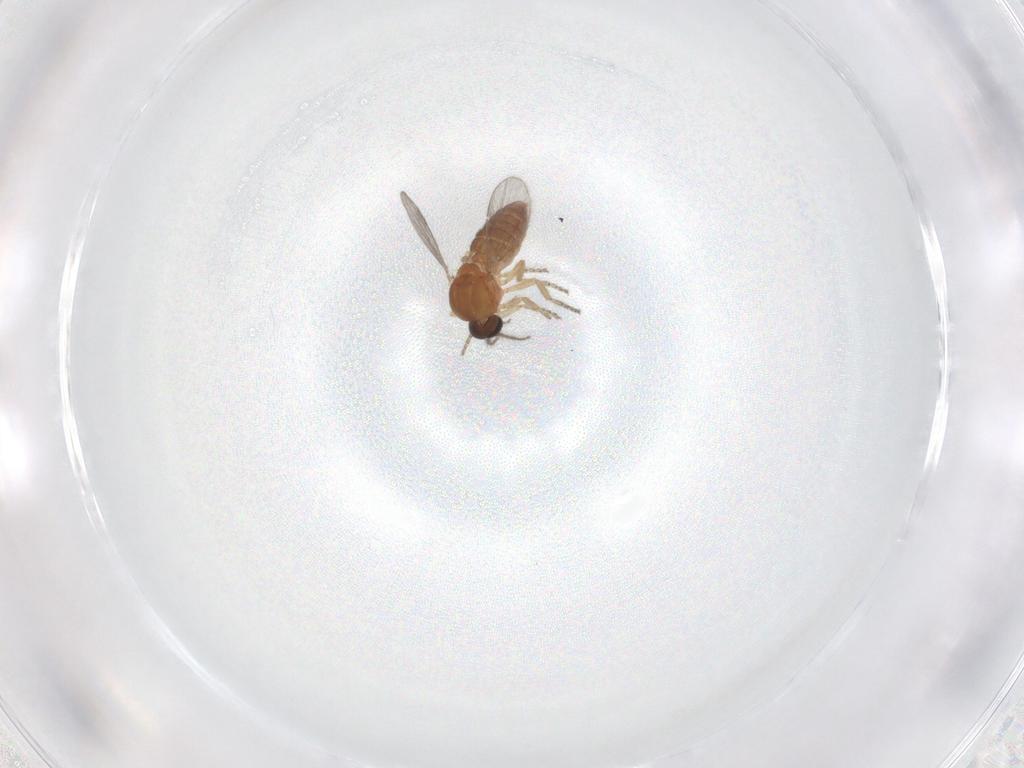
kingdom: Animalia
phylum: Arthropoda
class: Insecta
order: Diptera
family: Ceratopogonidae
